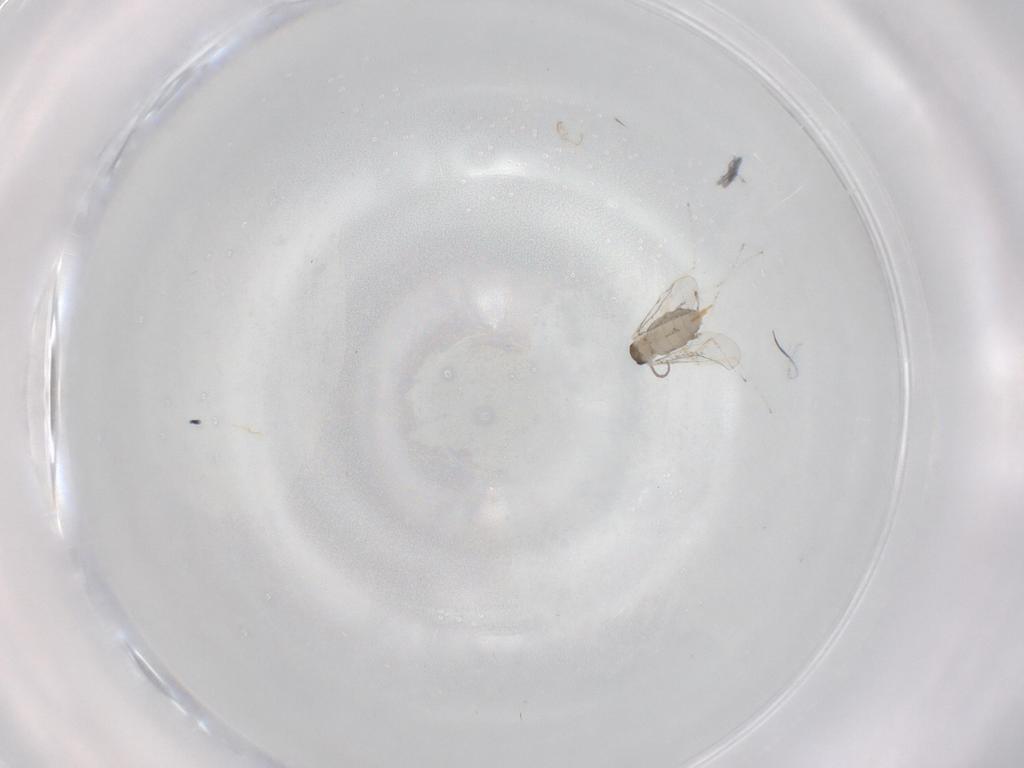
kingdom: Animalia
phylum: Arthropoda
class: Insecta
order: Diptera
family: Cecidomyiidae
